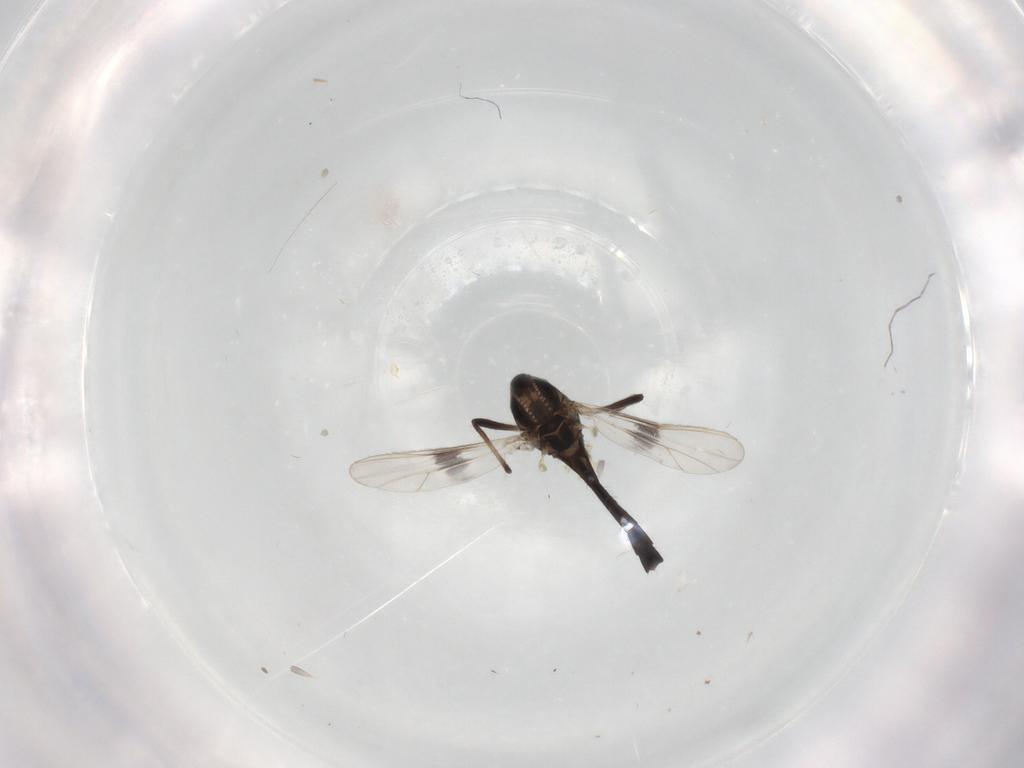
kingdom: Animalia
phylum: Arthropoda
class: Insecta
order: Diptera
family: Chironomidae
